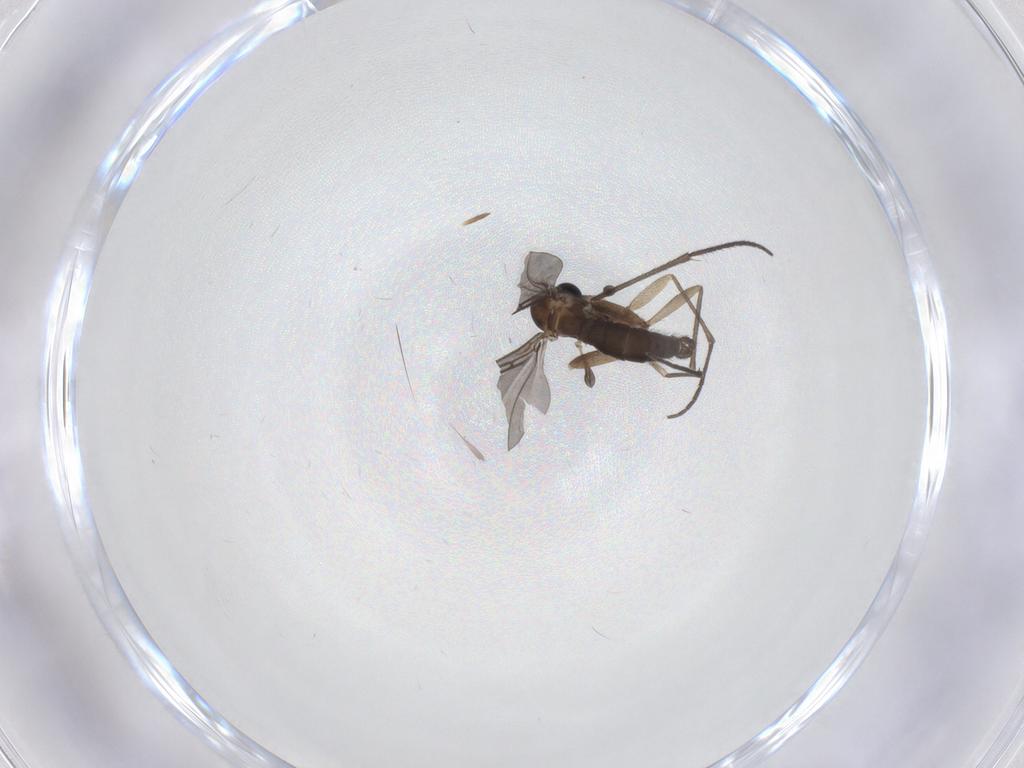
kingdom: Animalia
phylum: Arthropoda
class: Insecta
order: Diptera
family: Sciaridae
